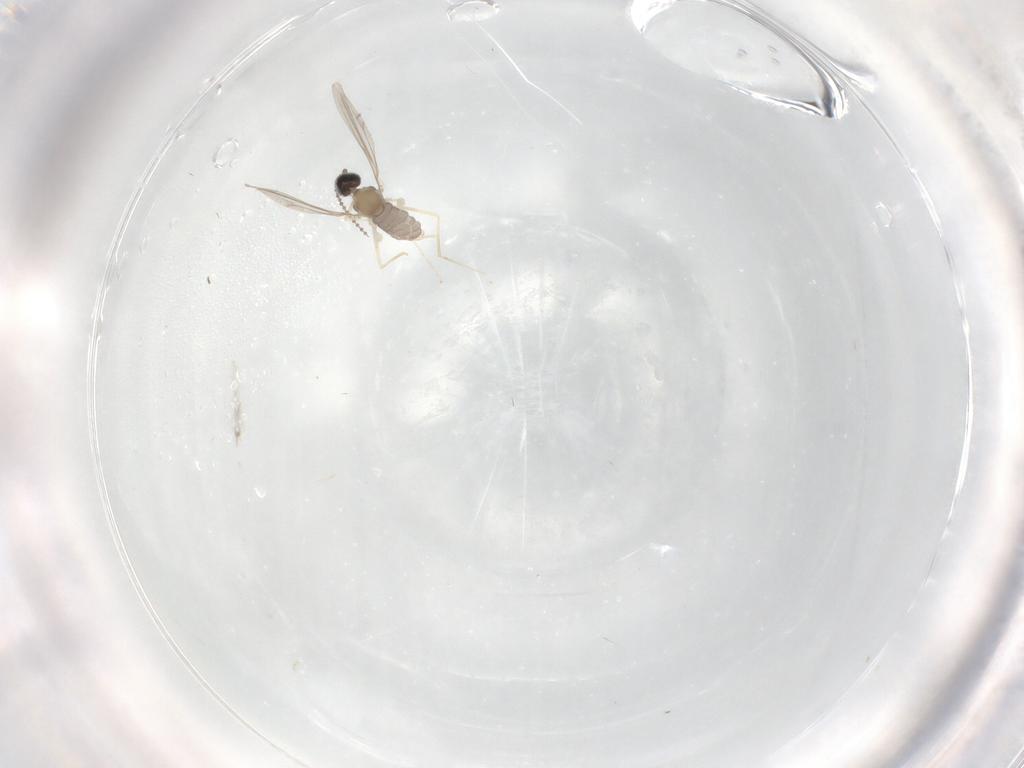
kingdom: Animalia
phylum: Arthropoda
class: Insecta
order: Diptera
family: Cecidomyiidae
